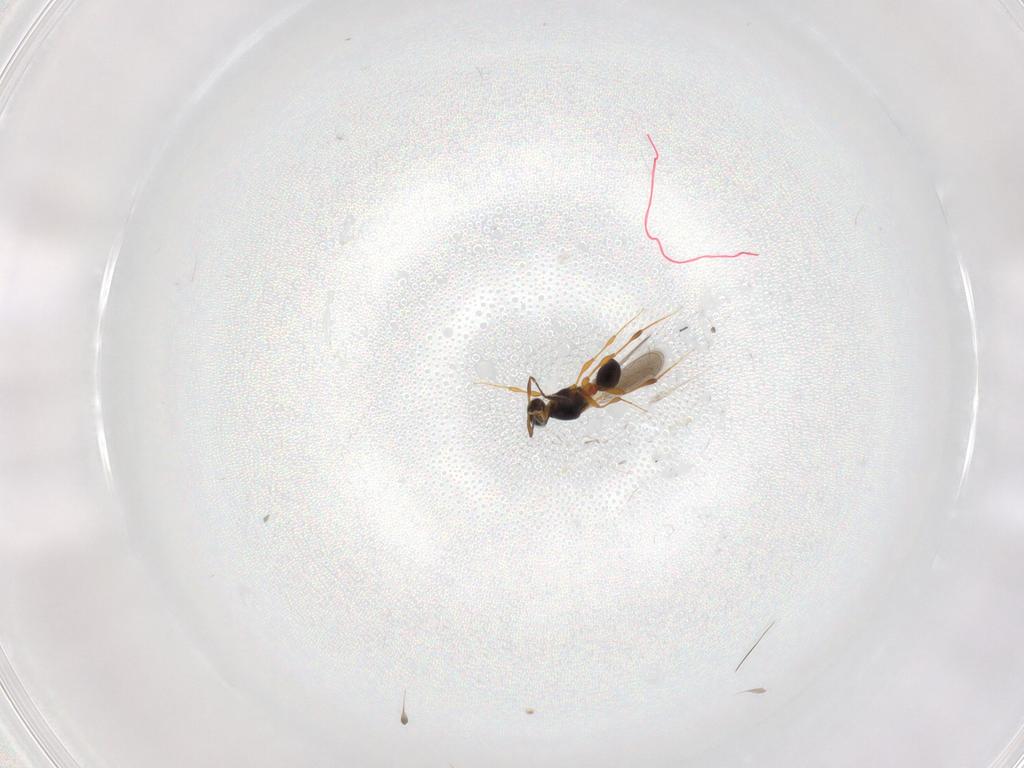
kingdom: Animalia
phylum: Arthropoda
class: Insecta
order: Hymenoptera
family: Platygastridae
